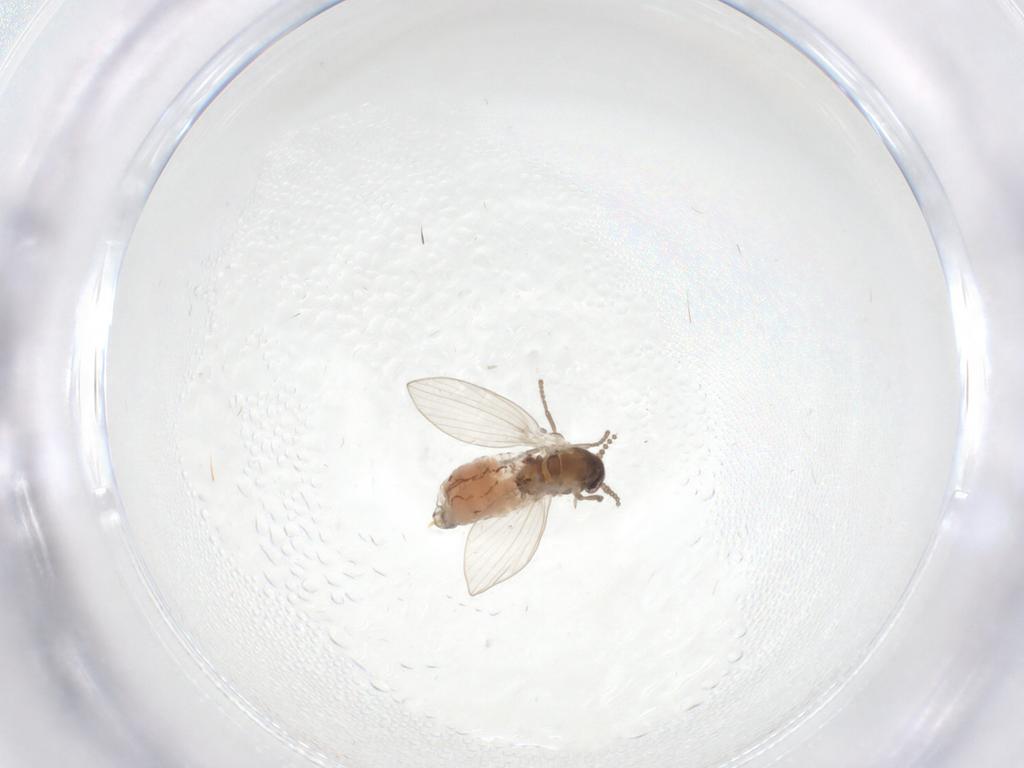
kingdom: Animalia
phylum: Arthropoda
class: Insecta
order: Diptera
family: Psychodidae
